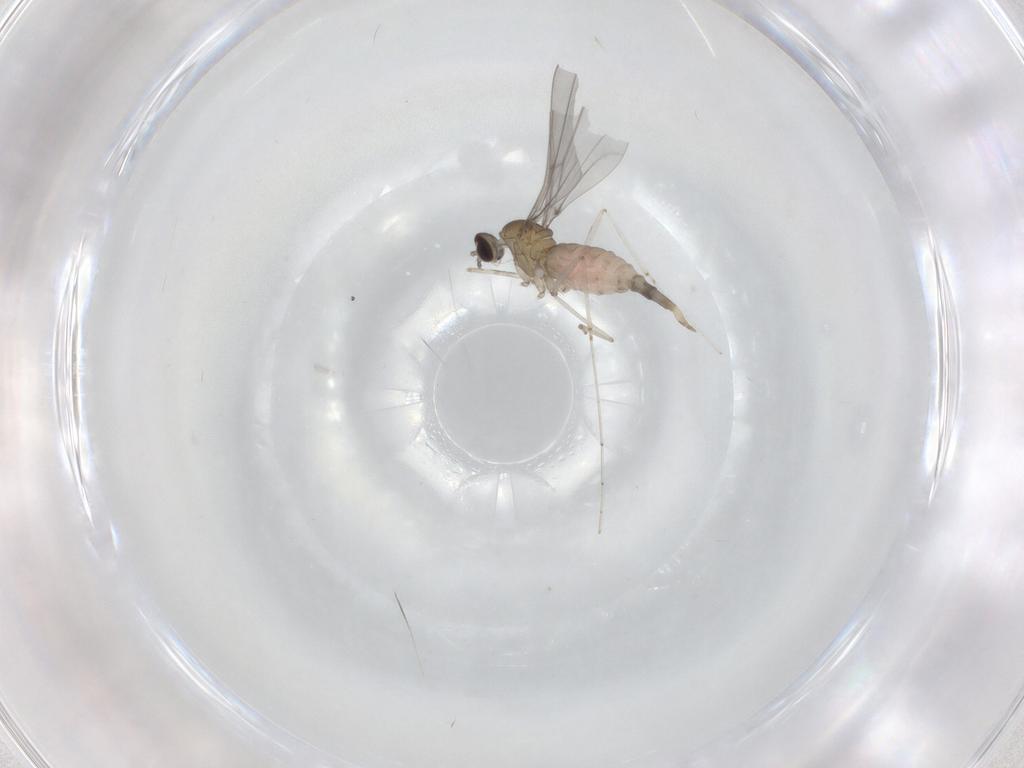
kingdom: Animalia
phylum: Arthropoda
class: Insecta
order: Diptera
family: Cecidomyiidae
